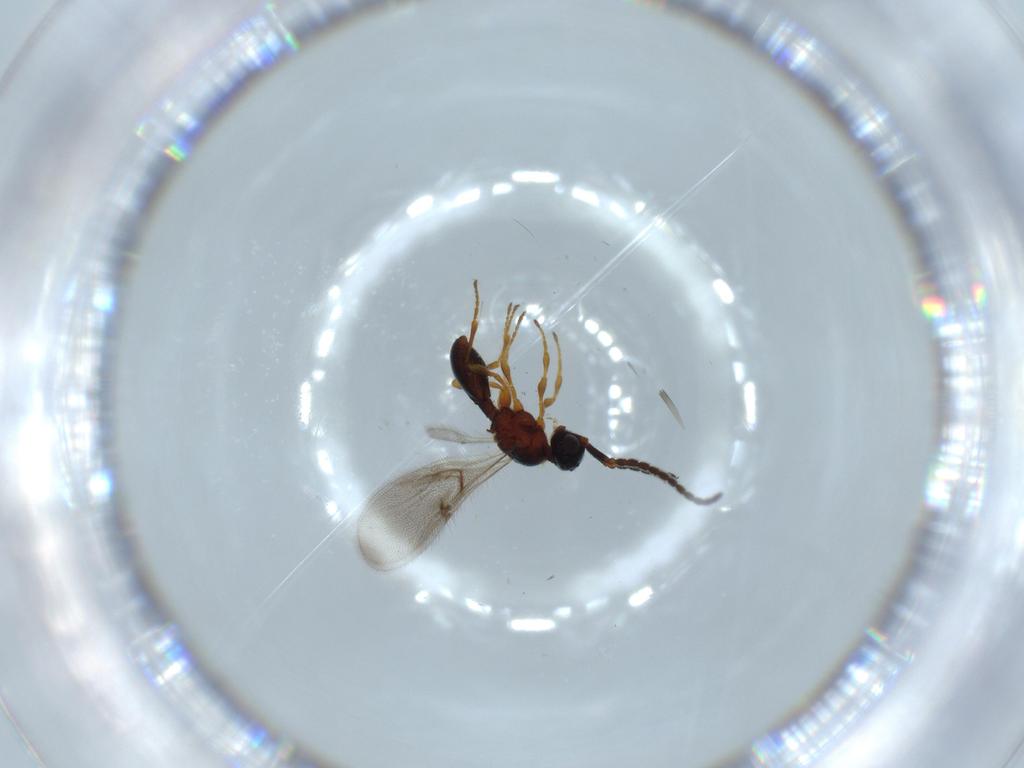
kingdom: Animalia
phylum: Arthropoda
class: Insecta
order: Hymenoptera
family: Diapriidae
